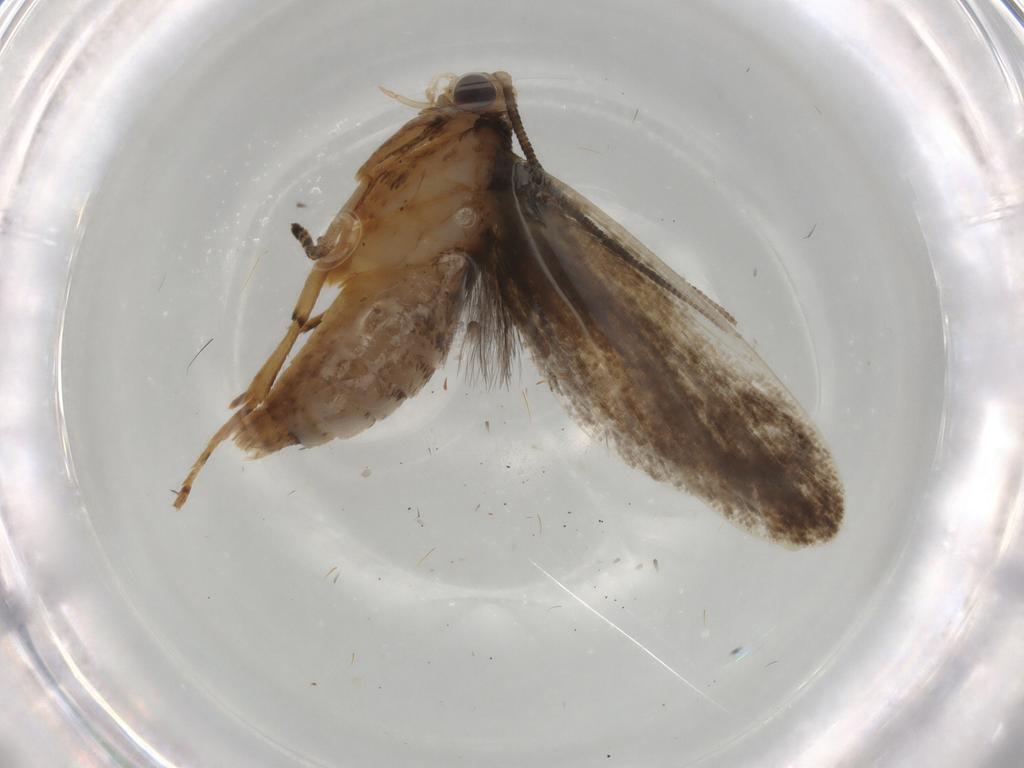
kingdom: Animalia
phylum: Arthropoda
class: Insecta
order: Lepidoptera
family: Tineidae
